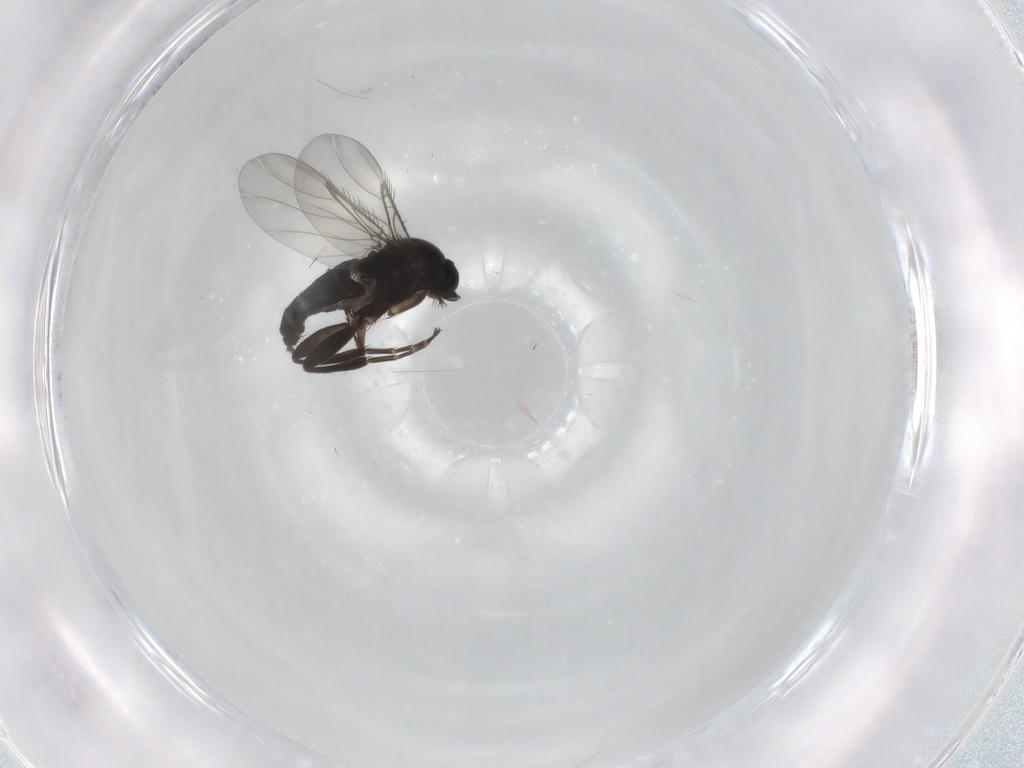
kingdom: Animalia
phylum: Arthropoda
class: Insecta
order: Diptera
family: Phoridae
